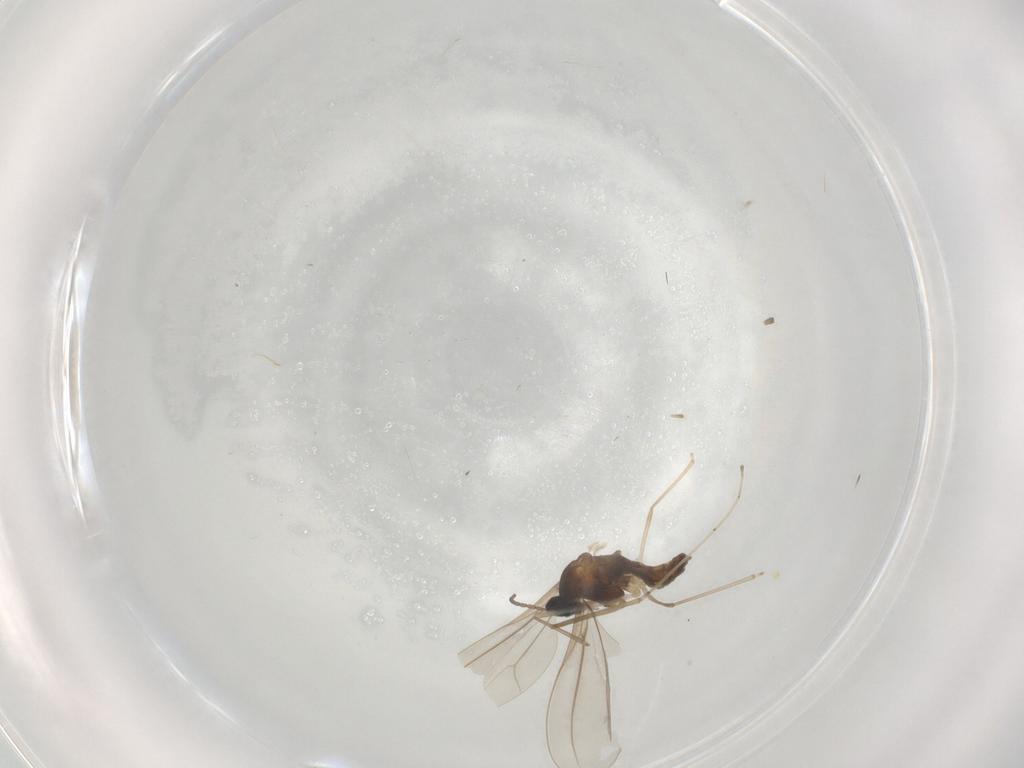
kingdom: Animalia
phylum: Arthropoda
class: Insecta
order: Diptera
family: Cecidomyiidae
